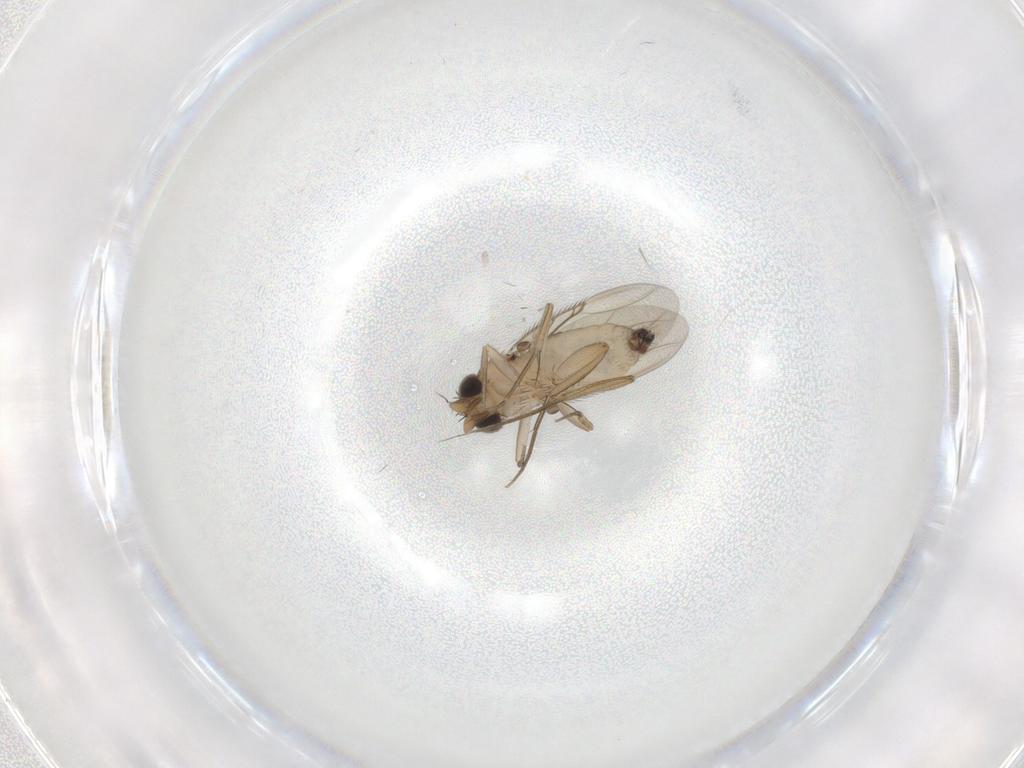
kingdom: Animalia
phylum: Arthropoda
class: Insecta
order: Diptera
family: Phoridae
